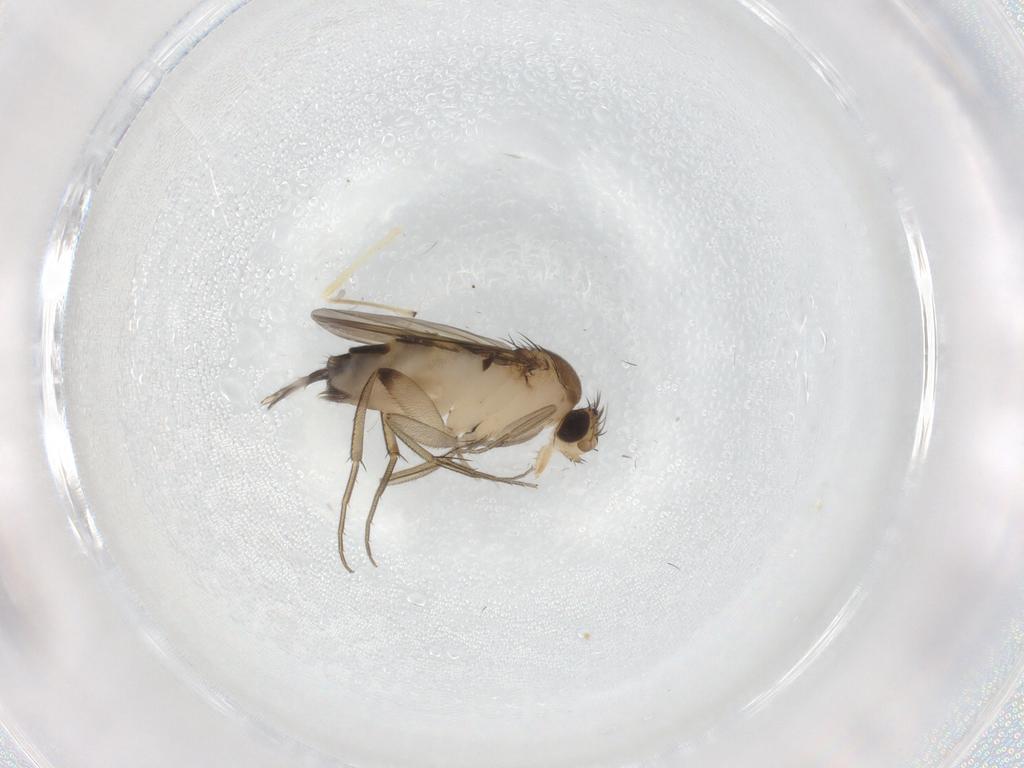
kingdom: Animalia
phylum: Arthropoda
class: Insecta
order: Diptera
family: Phoridae
